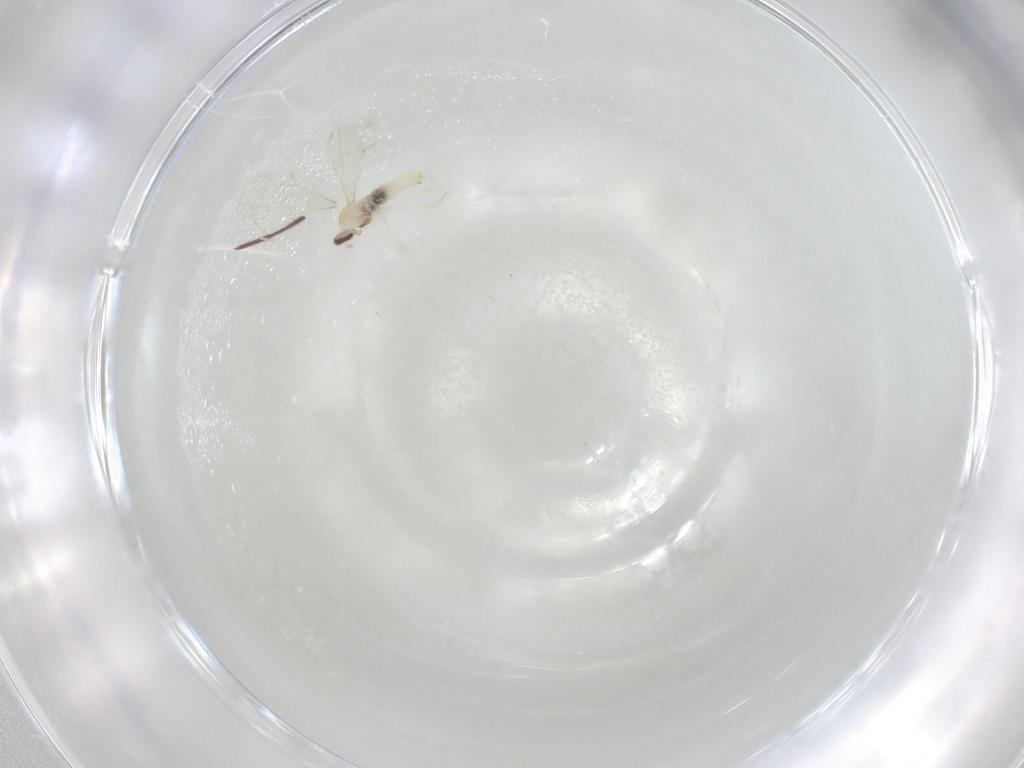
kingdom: Animalia
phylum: Arthropoda
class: Insecta
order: Diptera
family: Cecidomyiidae
